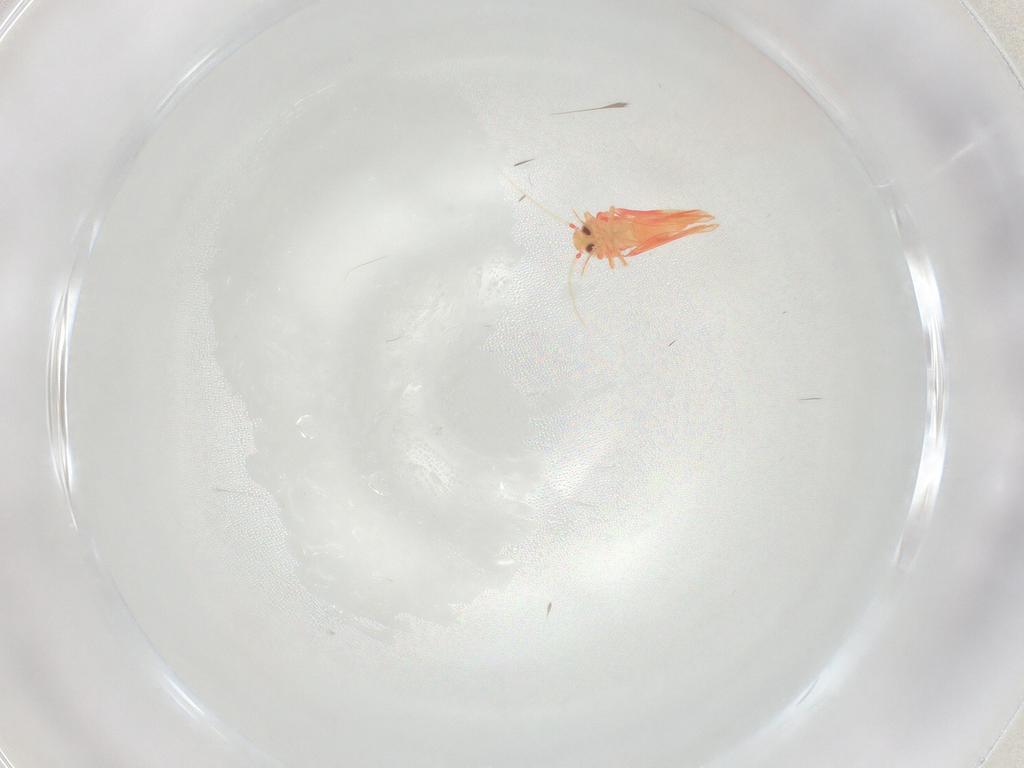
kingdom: Animalia
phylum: Arthropoda
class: Insecta
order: Hemiptera
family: Aleyrodidae
